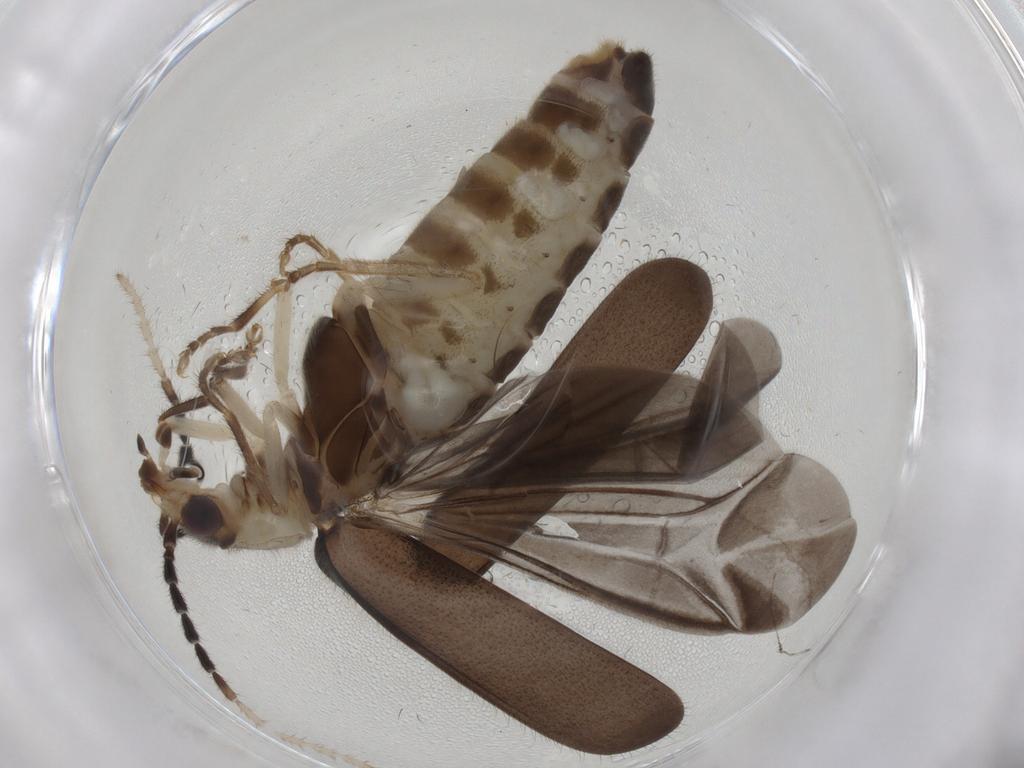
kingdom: Animalia
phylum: Arthropoda
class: Insecta
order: Coleoptera
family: Cantharidae
